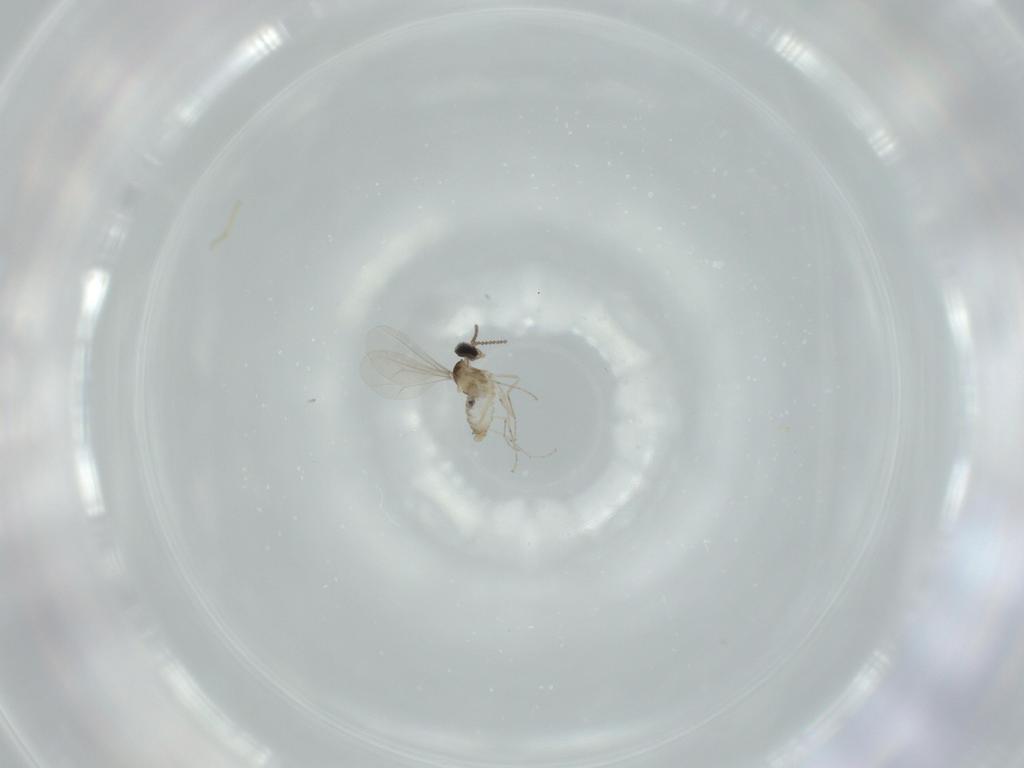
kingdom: Animalia
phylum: Arthropoda
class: Insecta
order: Diptera
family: Cecidomyiidae
